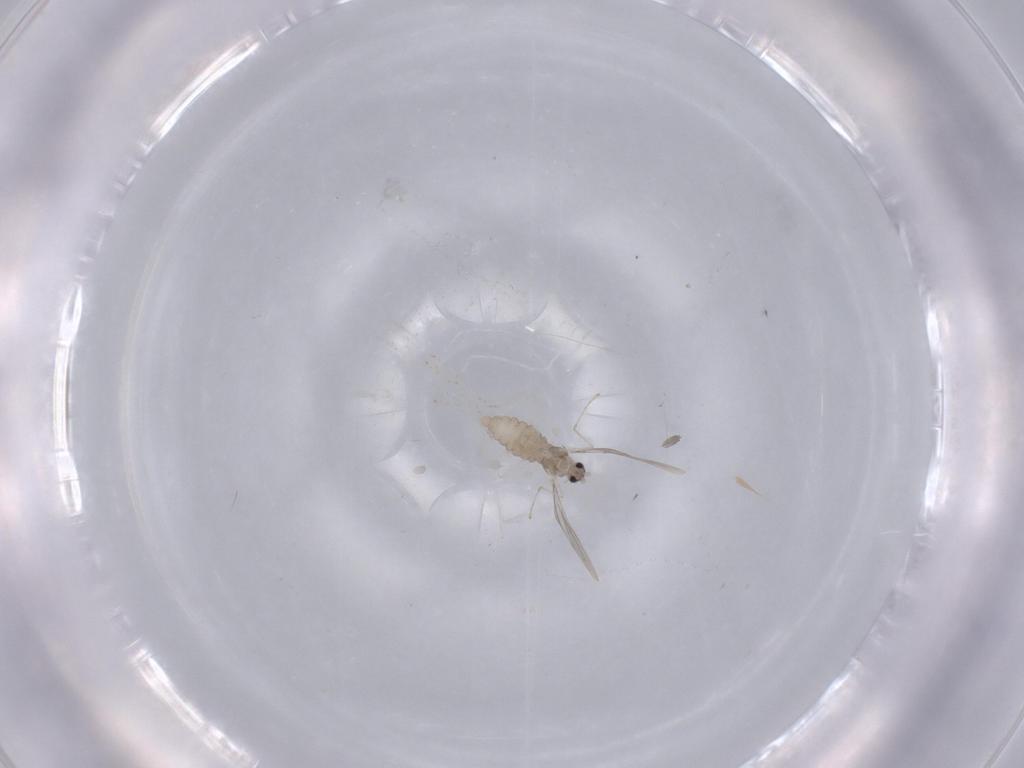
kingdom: Animalia
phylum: Arthropoda
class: Insecta
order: Diptera
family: Cecidomyiidae
